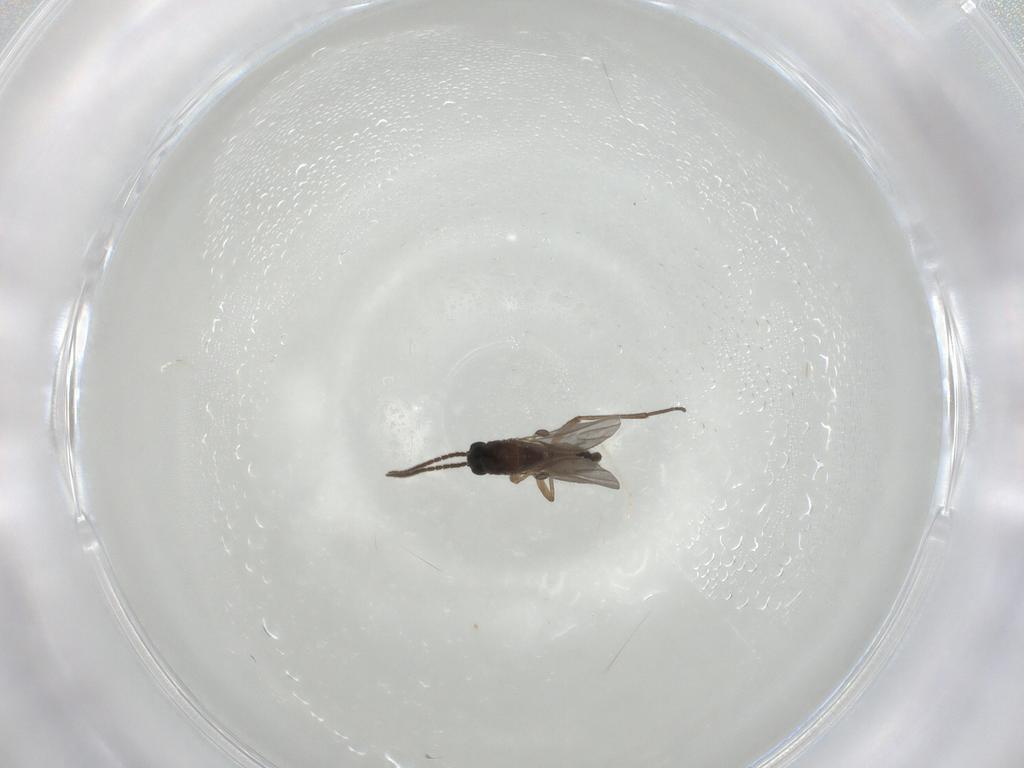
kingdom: Animalia
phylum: Arthropoda
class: Insecta
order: Diptera
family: Sciaridae
